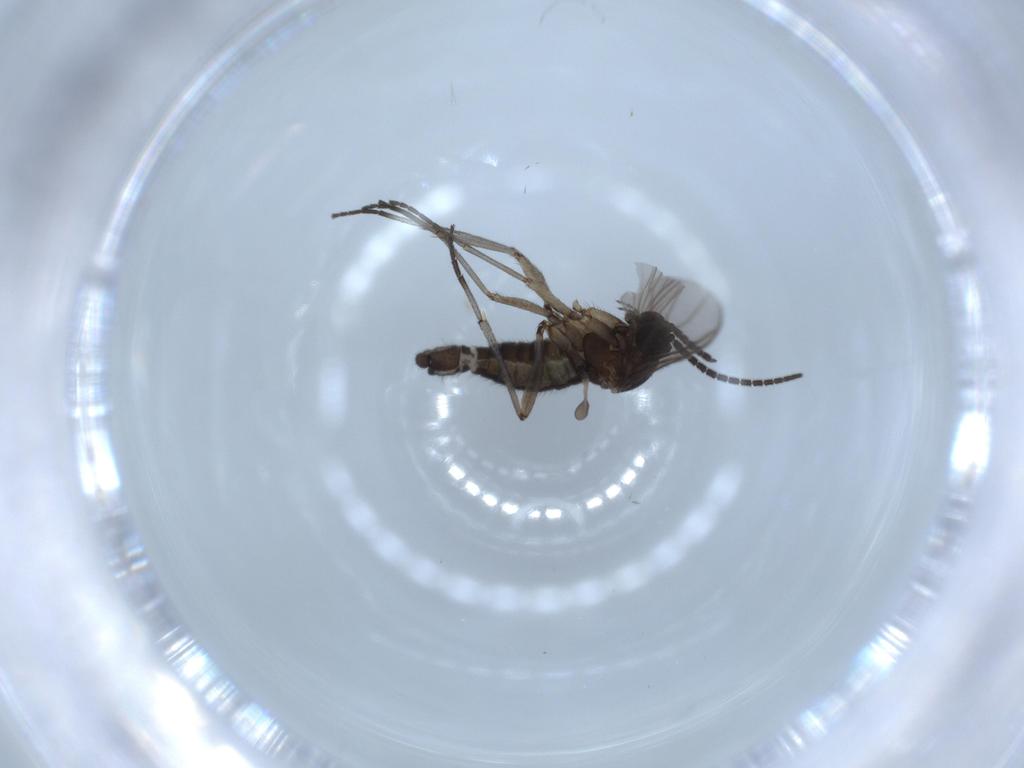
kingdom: Animalia
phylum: Arthropoda
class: Insecta
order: Diptera
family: Sciaridae
